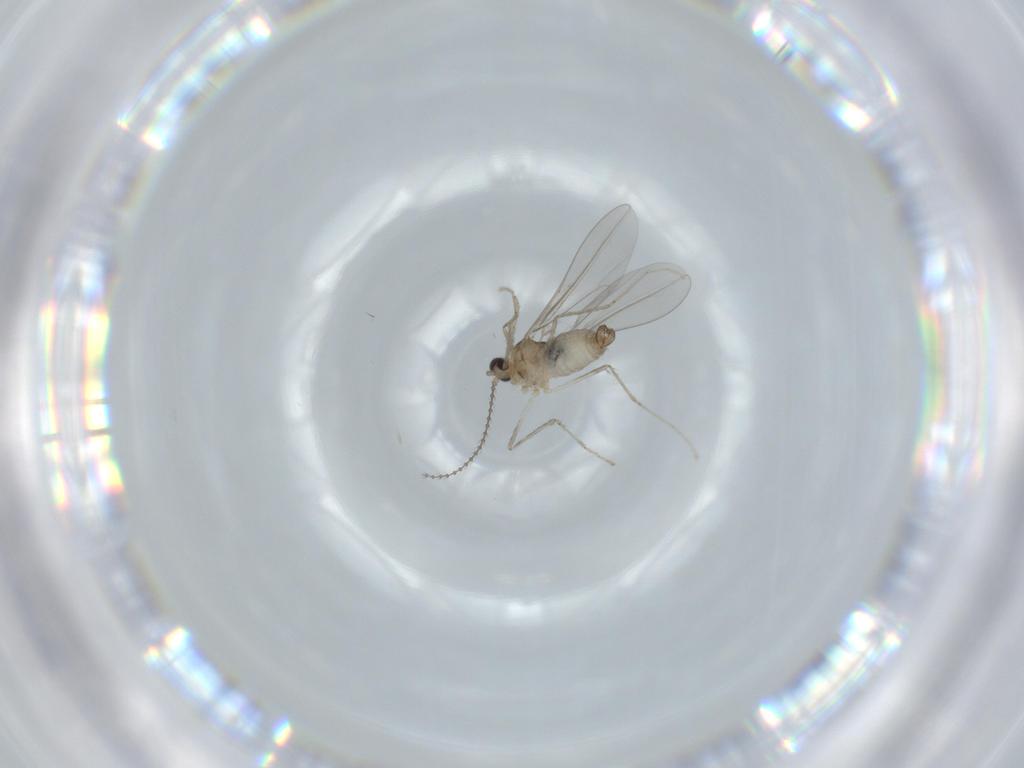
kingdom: Animalia
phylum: Arthropoda
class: Insecta
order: Diptera
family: Cecidomyiidae
